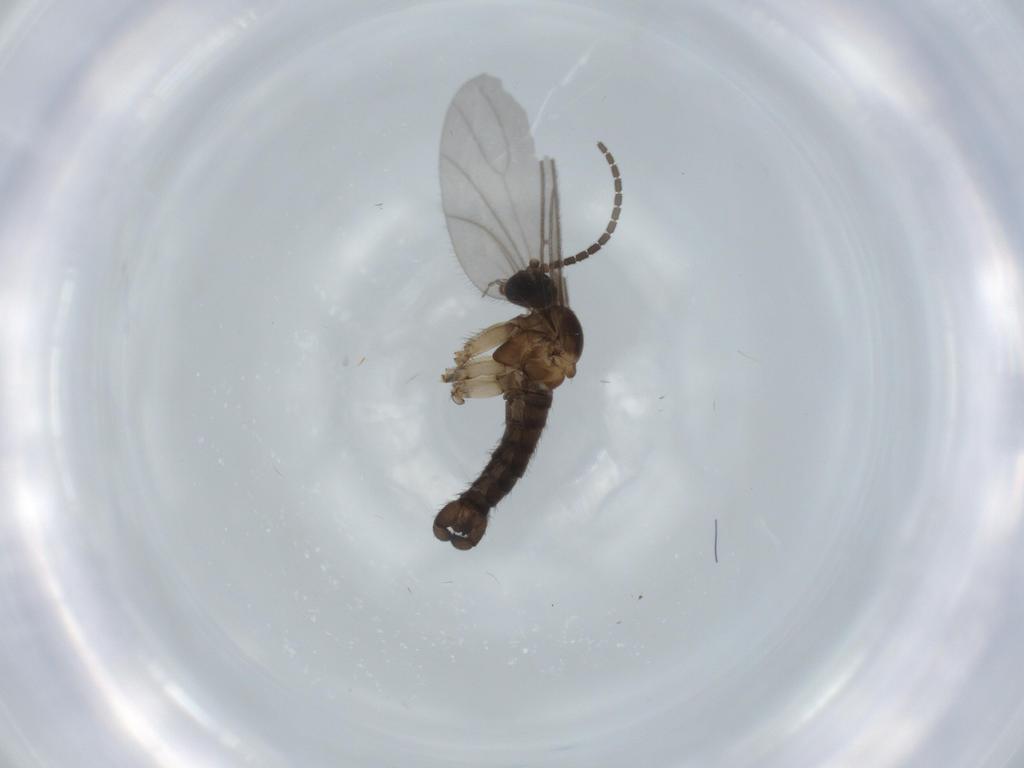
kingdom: Animalia
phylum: Arthropoda
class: Insecta
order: Diptera
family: Sciaridae
